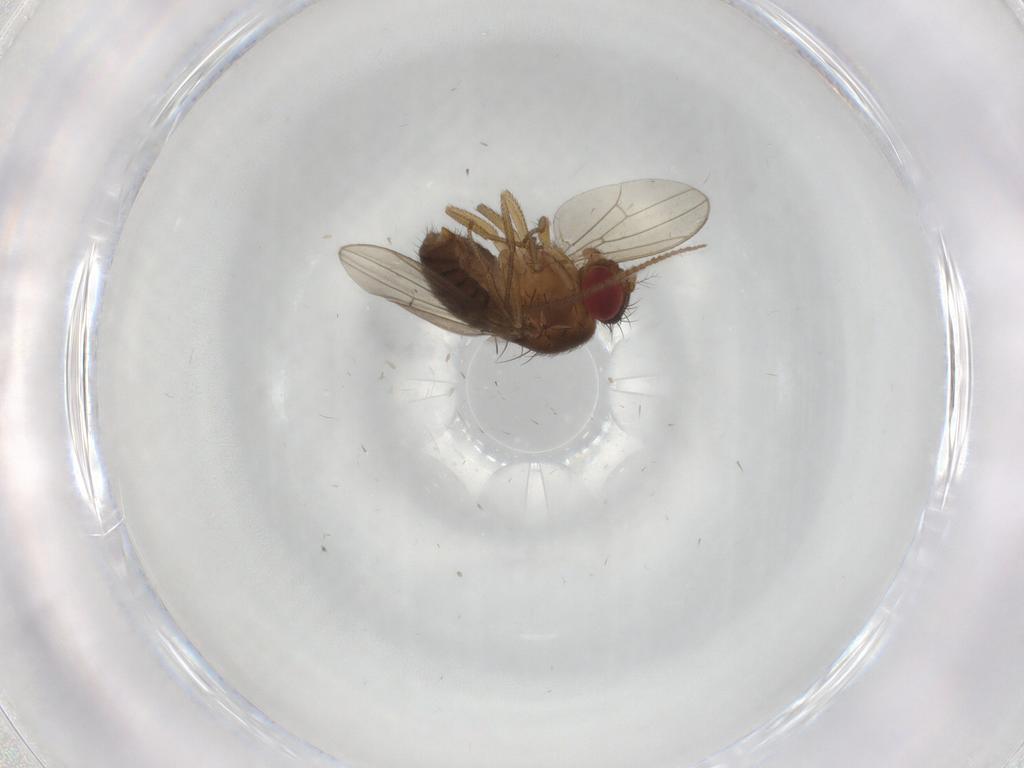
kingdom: Animalia
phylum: Arthropoda
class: Insecta
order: Diptera
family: Drosophilidae
